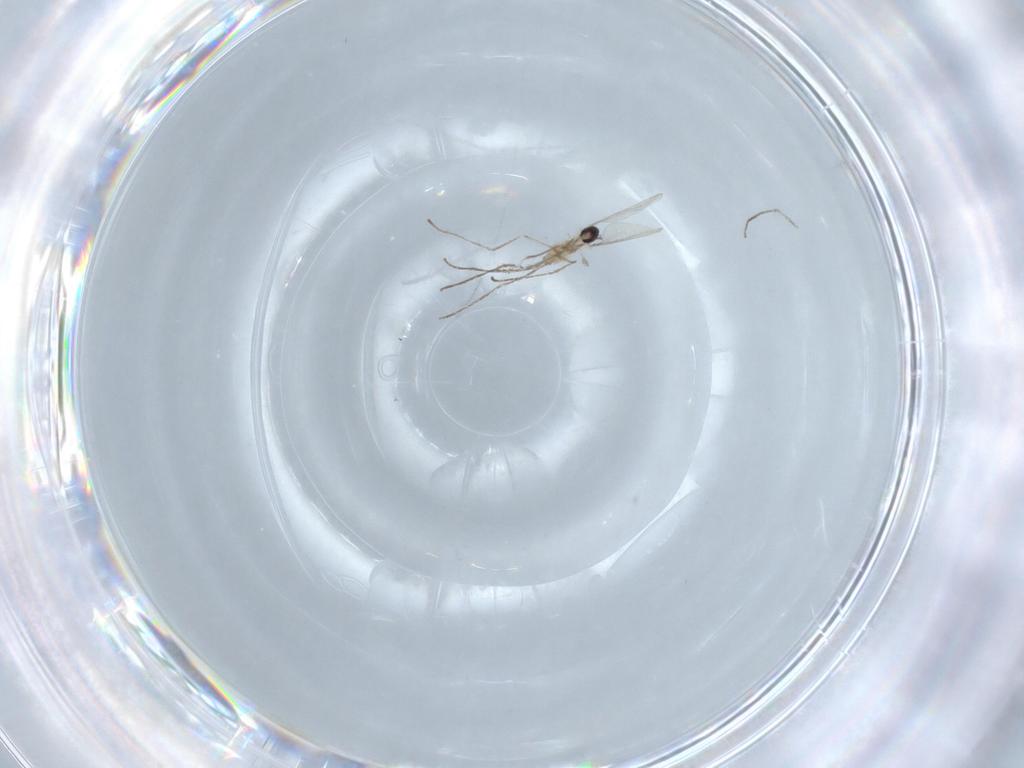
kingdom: Animalia
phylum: Arthropoda
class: Insecta
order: Diptera
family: Cecidomyiidae
